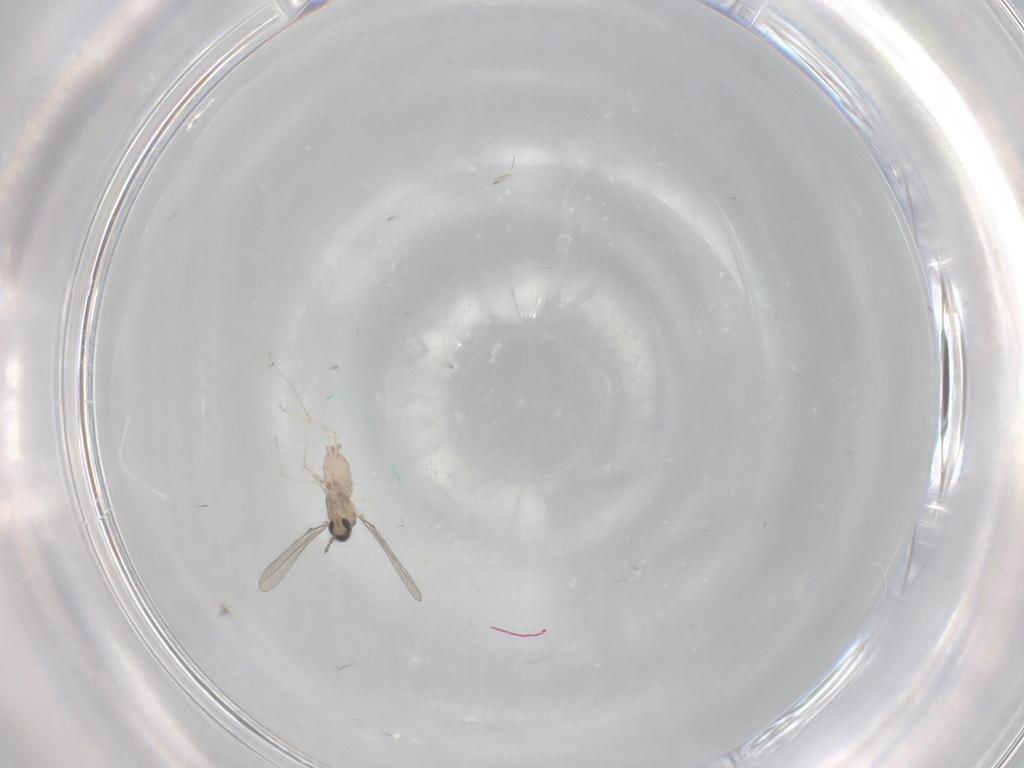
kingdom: Animalia
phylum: Arthropoda
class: Insecta
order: Diptera
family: Cecidomyiidae
